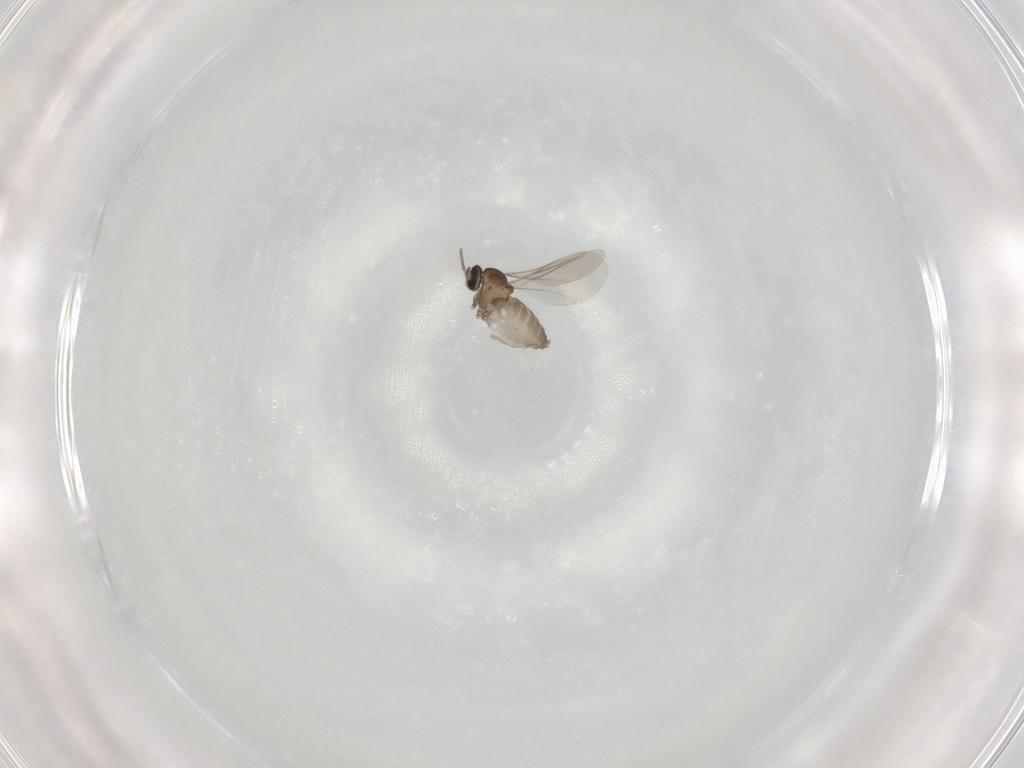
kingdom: Animalia
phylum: Arthropoda
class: Insecta
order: Diptera
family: Cecidomyiidae
